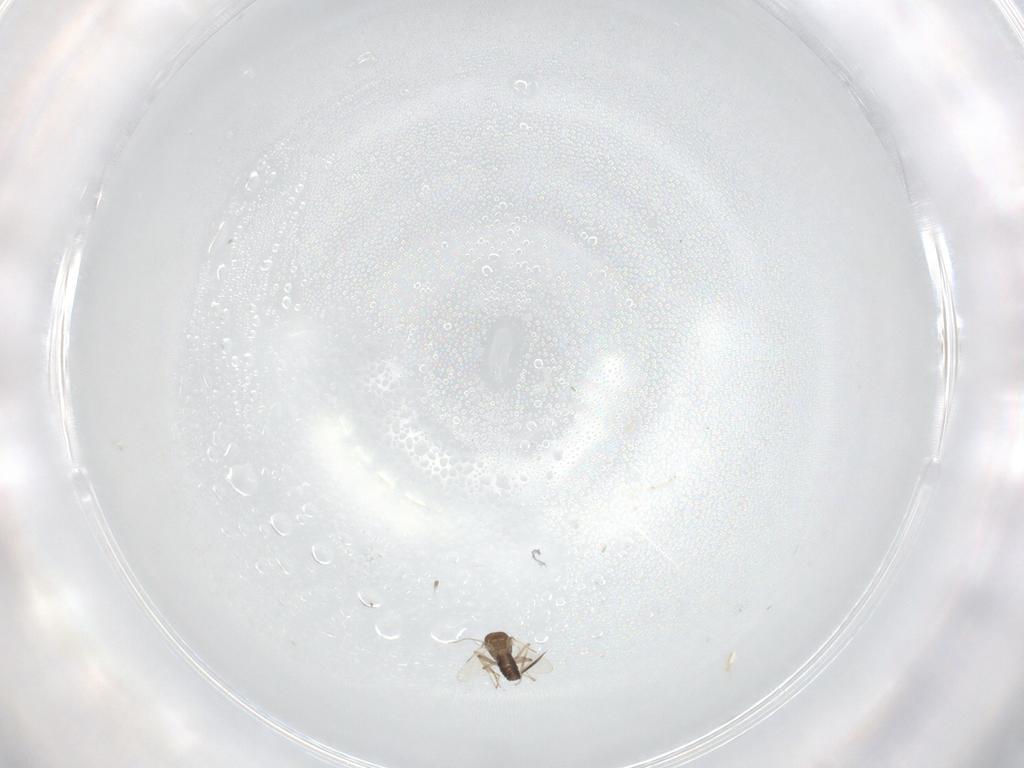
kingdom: Animalia
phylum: Arthropoda
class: Insecta
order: Diptera
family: Ceratopogonidae
